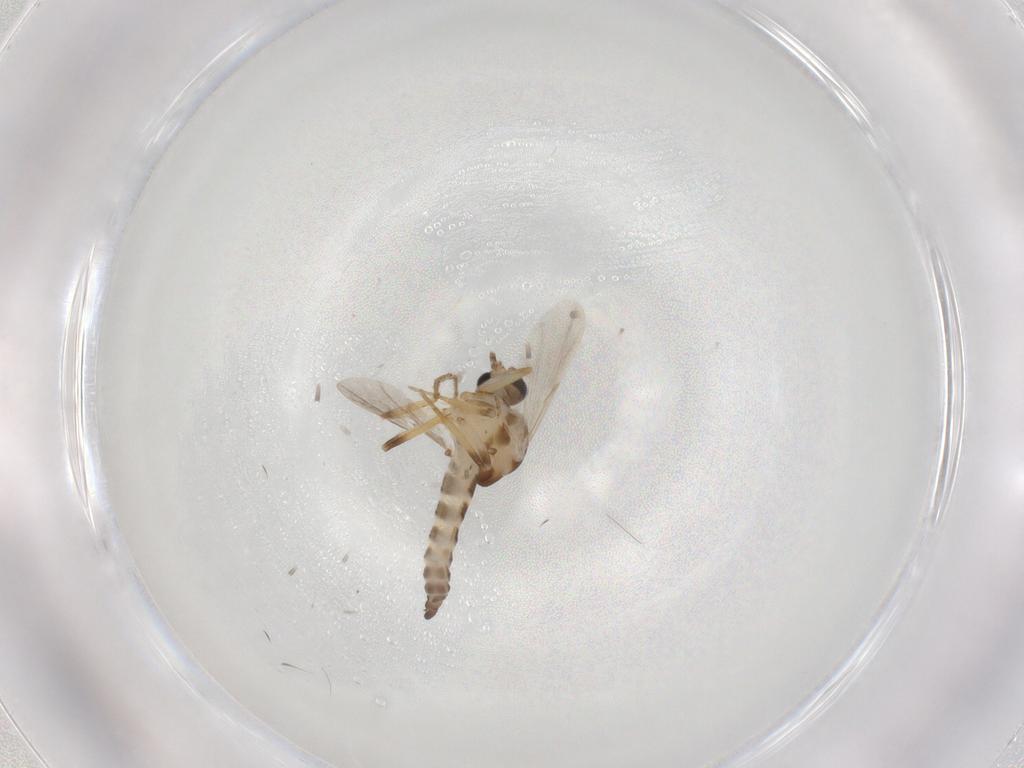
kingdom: Animalia
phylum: Arthropoda
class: Insecta
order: Diptera
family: Ceratopogonidae
